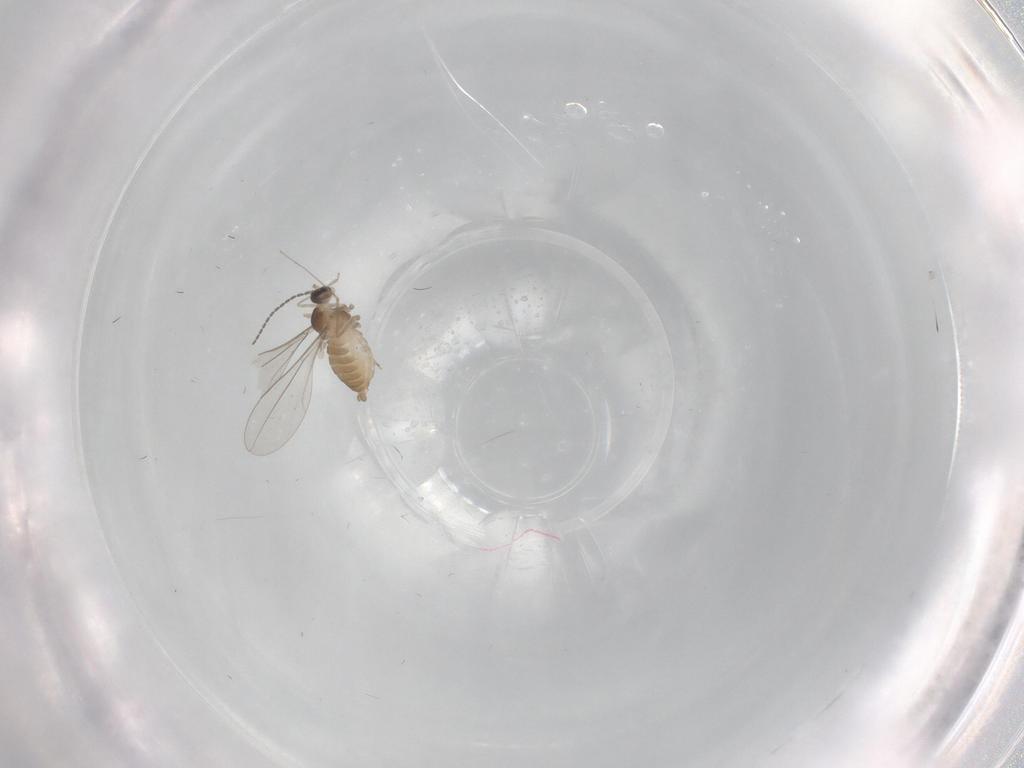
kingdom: Animalia
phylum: Arthropoda
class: Insecta
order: Diptera
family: Cecidomyiidae
